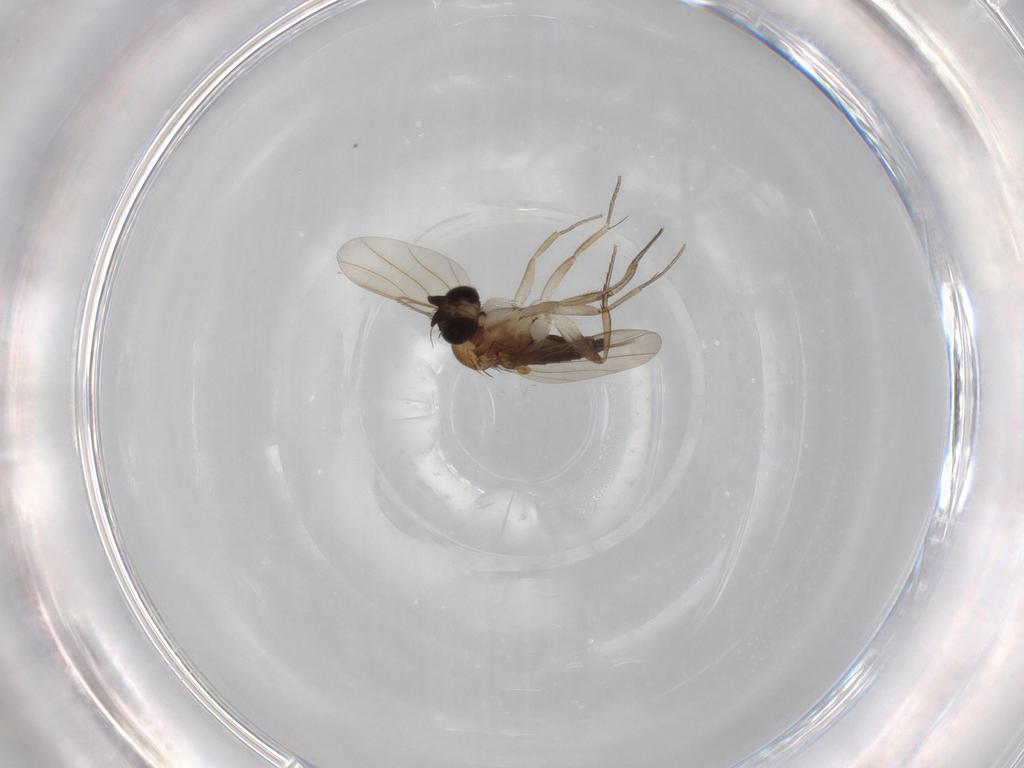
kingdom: Animalia
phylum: Arthropoda
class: Insecta
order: Diptera
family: Phoridae
